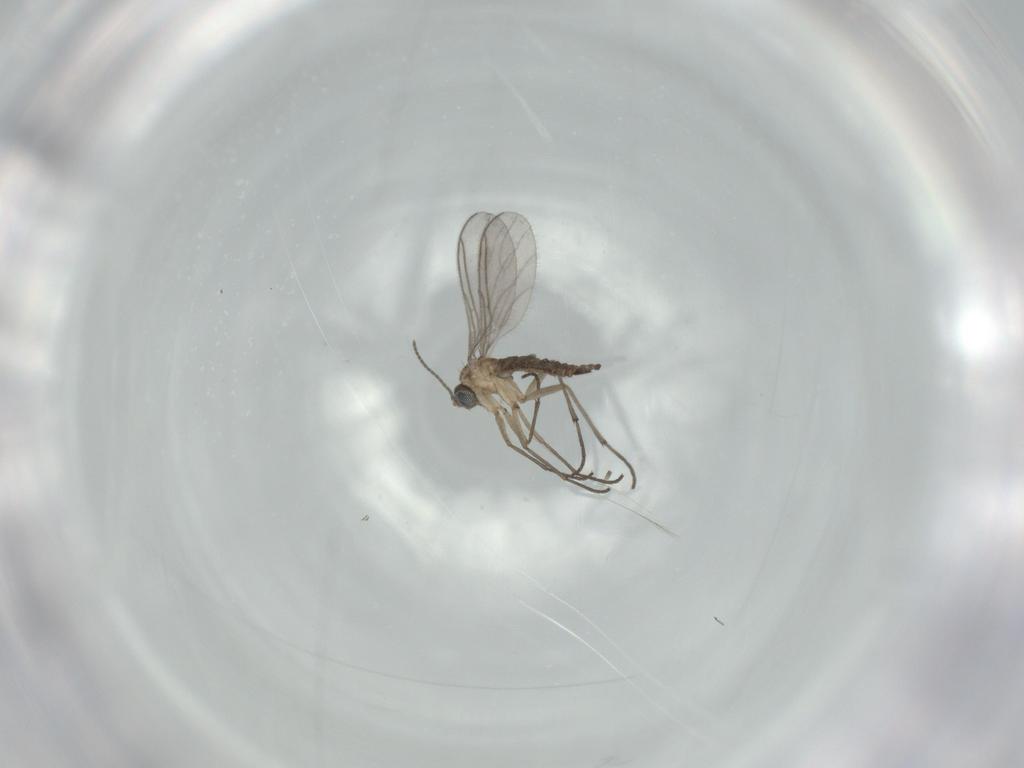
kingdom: Animalia
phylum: Arthropoda
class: Insecta
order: Diptera
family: Sciaridae
